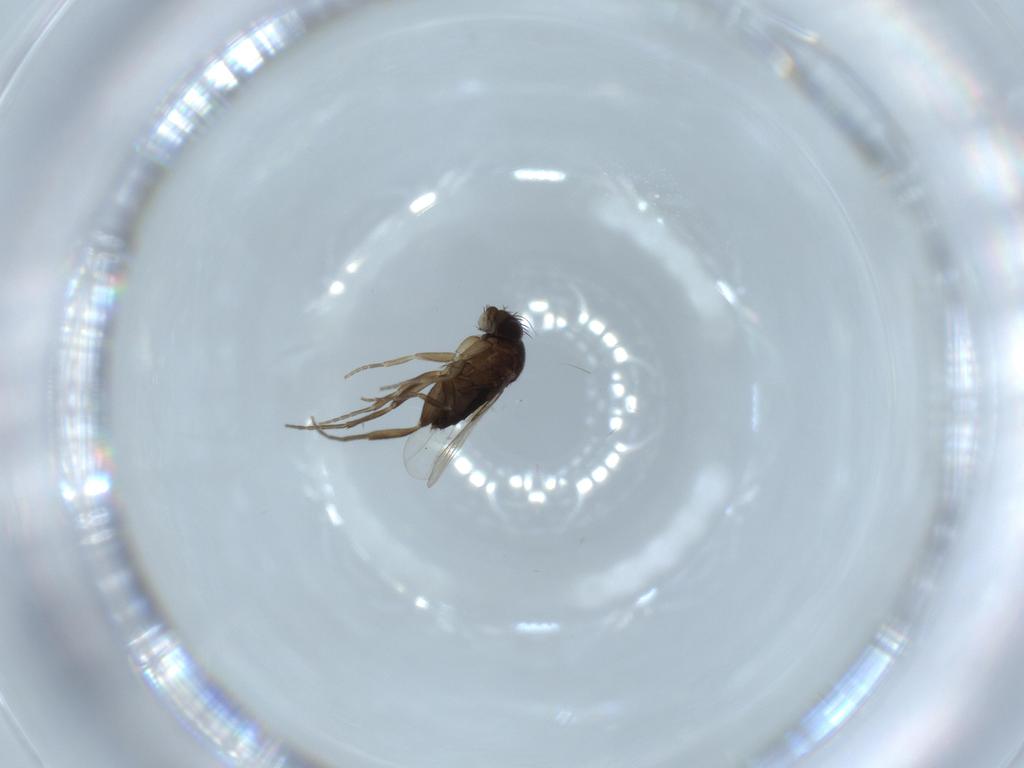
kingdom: Animalia
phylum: Arthropoda
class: Insecta
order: Diptera
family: Phoridae
